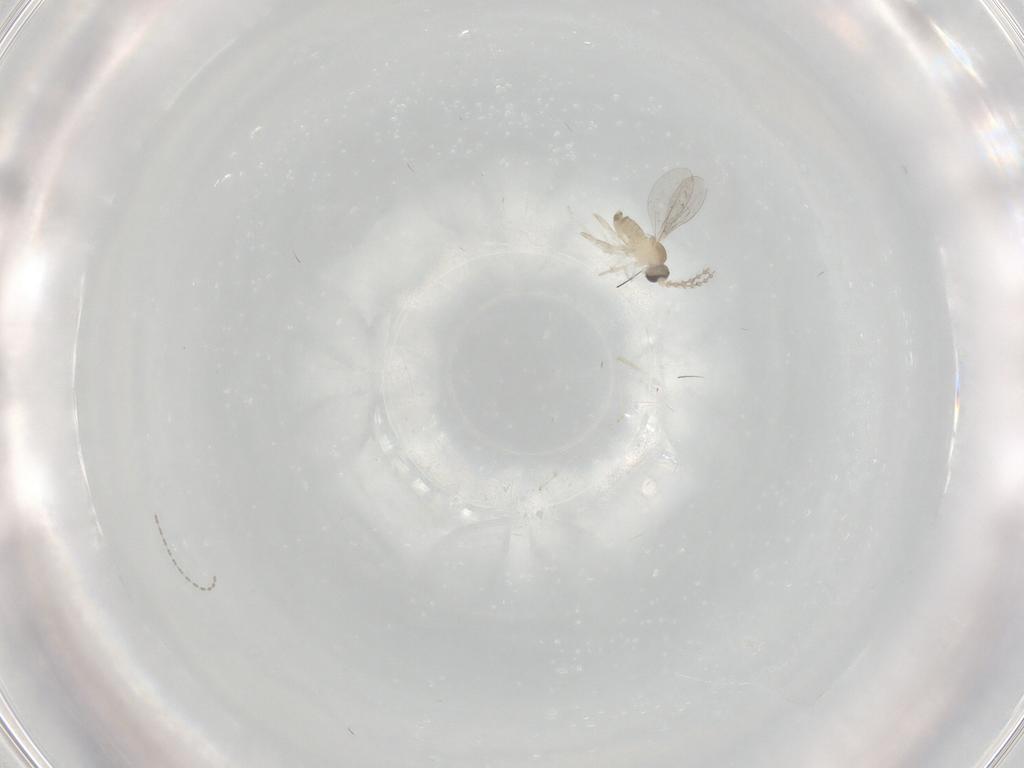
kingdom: Animalia
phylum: Arthropoda
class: Insecta
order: Diptera
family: Cecidomyiidae
